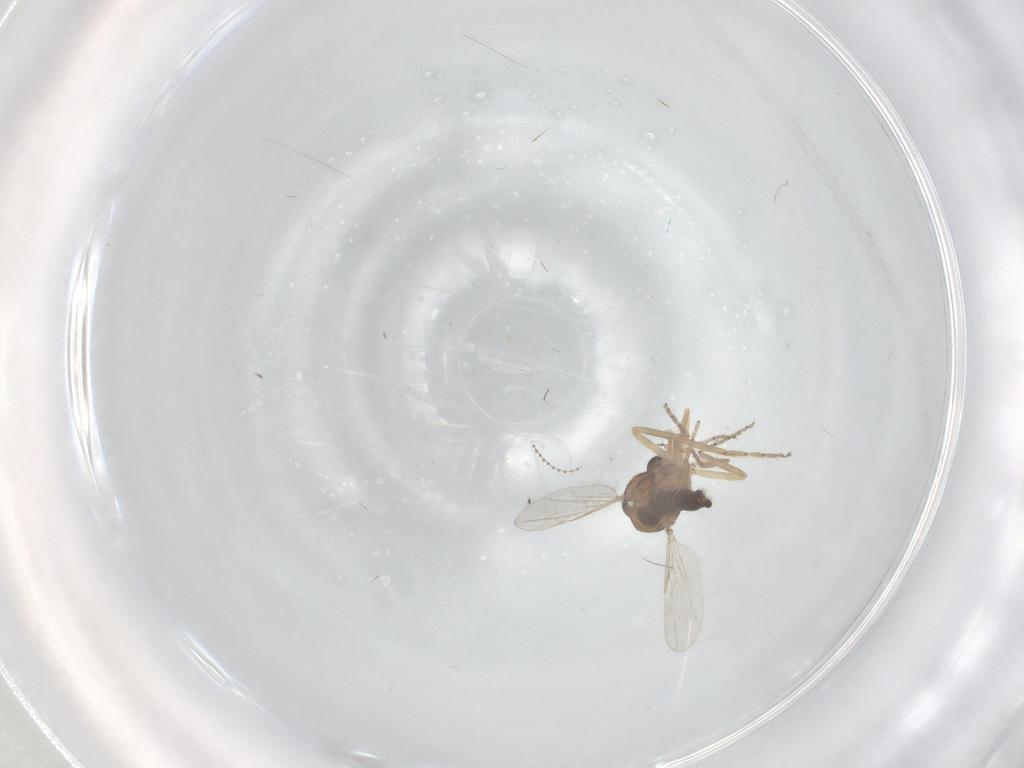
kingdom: Animalia
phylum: Arthropoda
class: Insecta
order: Diptera
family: Ceratopogonidae
